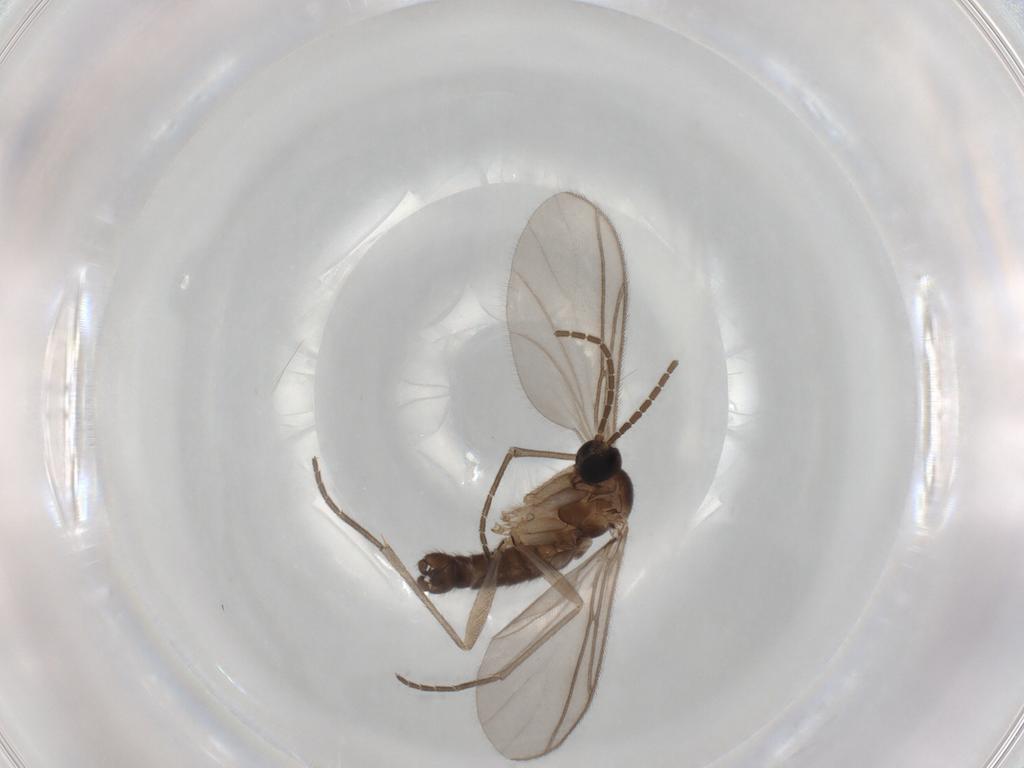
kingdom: Animalia
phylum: Arthropoda
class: Insecta
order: Diptera
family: Sciaridae
